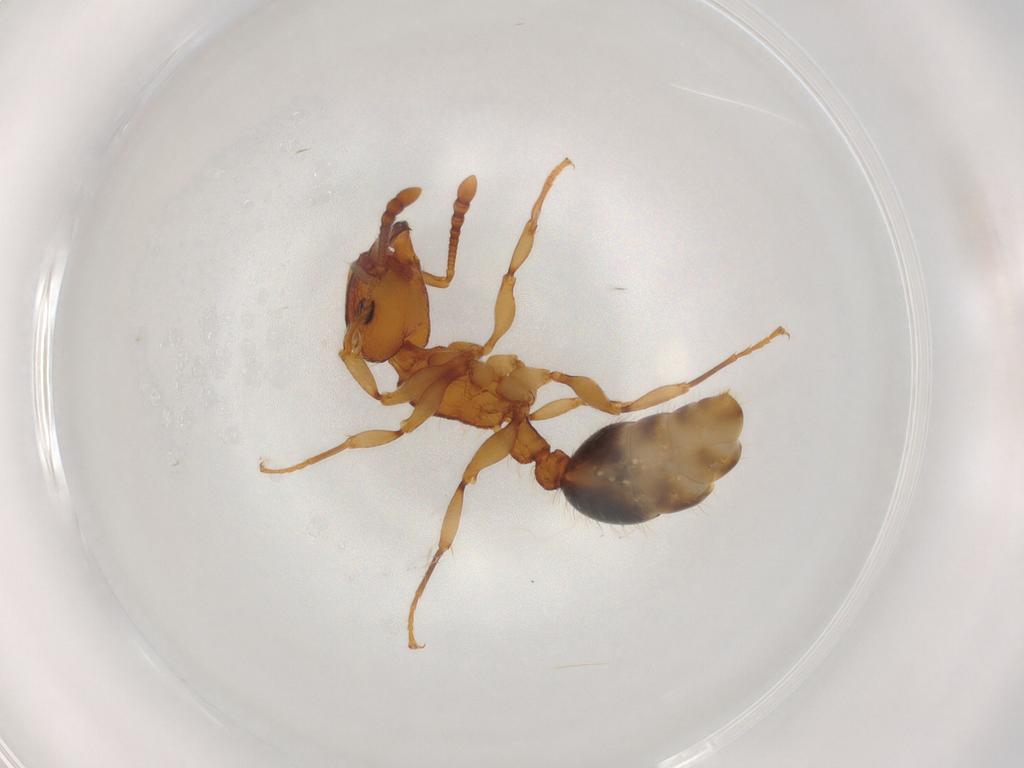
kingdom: Animalia
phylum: Arthropoda
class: Insecta
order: Hymenoptera
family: Formicidae
